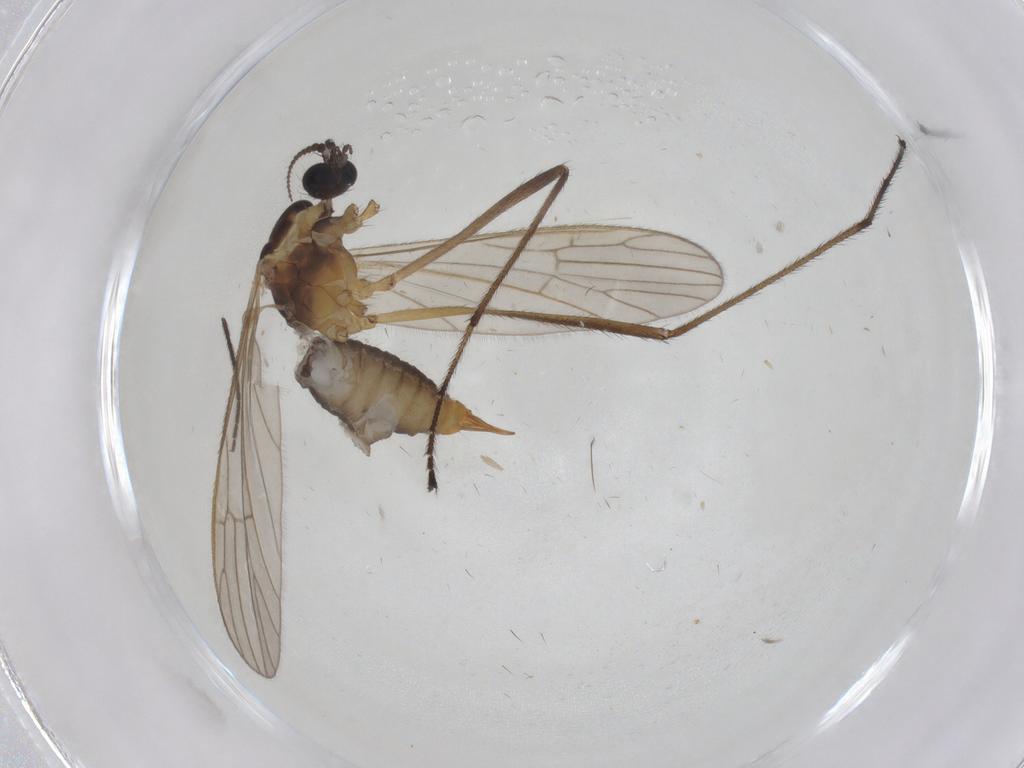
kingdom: Animalia
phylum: Arthropoda
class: Insecta
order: Diptera
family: Agromyzidae
